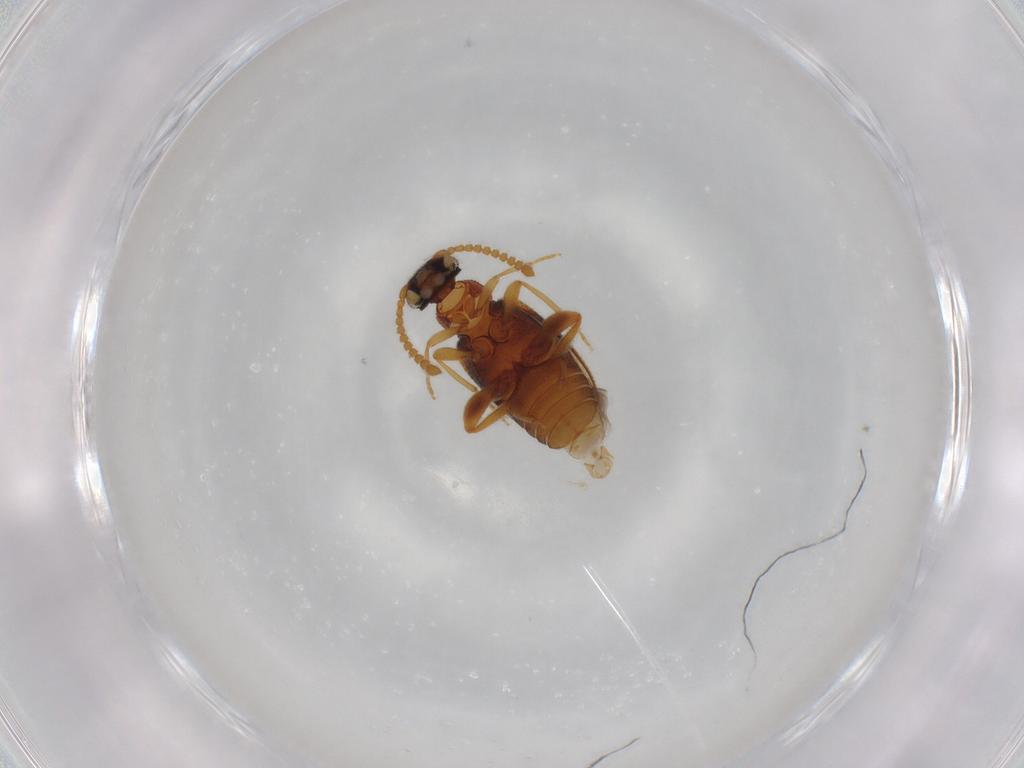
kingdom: Animalia
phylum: Arthropoda
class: Insecta
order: Coleoptera
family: Aderidae
